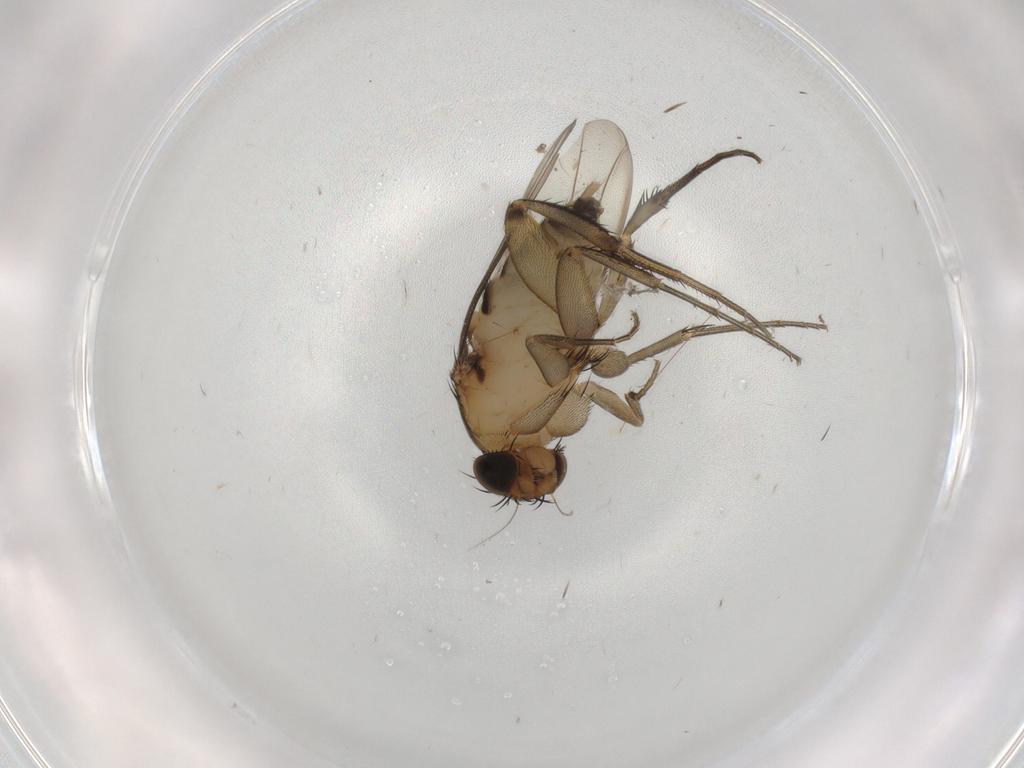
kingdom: Animalia
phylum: Arthropoda
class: Insecta
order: Diptera
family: Phoridae
